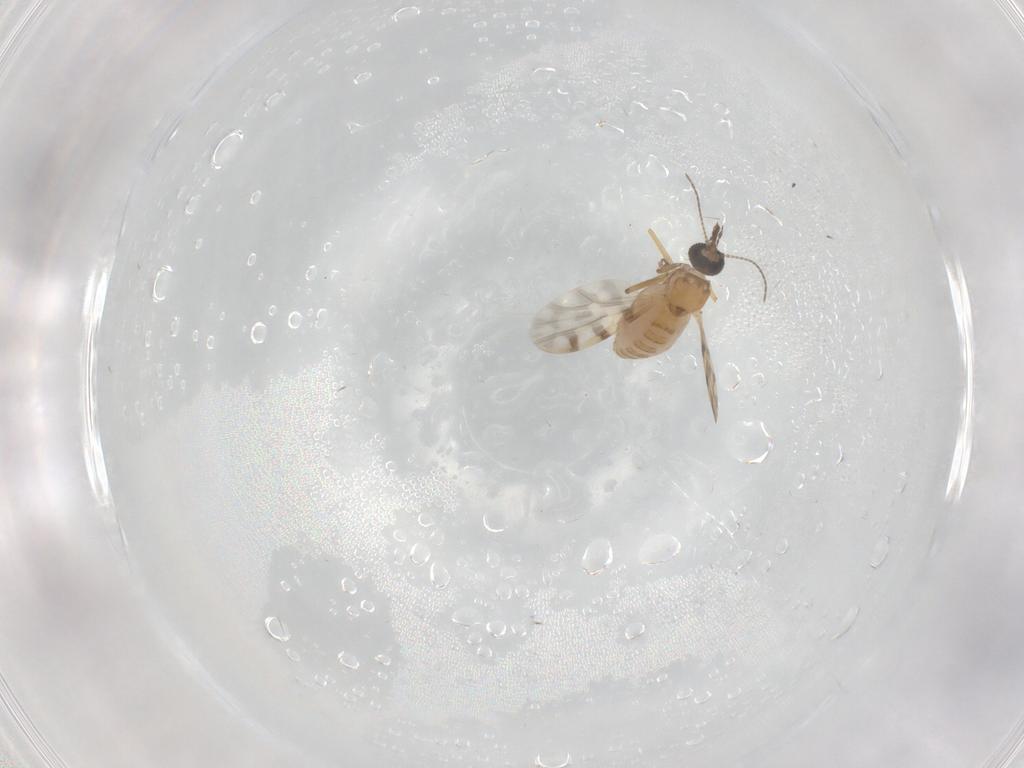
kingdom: Animalia
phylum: Arthropoda
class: Insecta
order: Diptera
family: Ceratopogonidae
